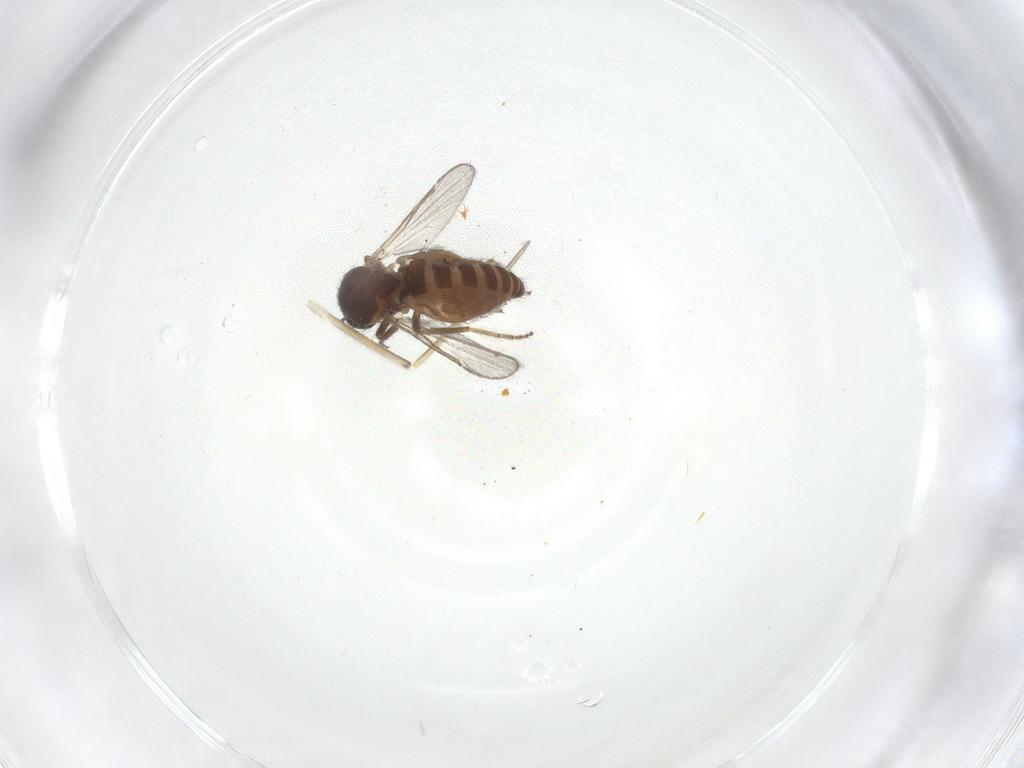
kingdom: Animalia
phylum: Arthropoda
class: Insecta
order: Diptera
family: Ceratopogonidae
